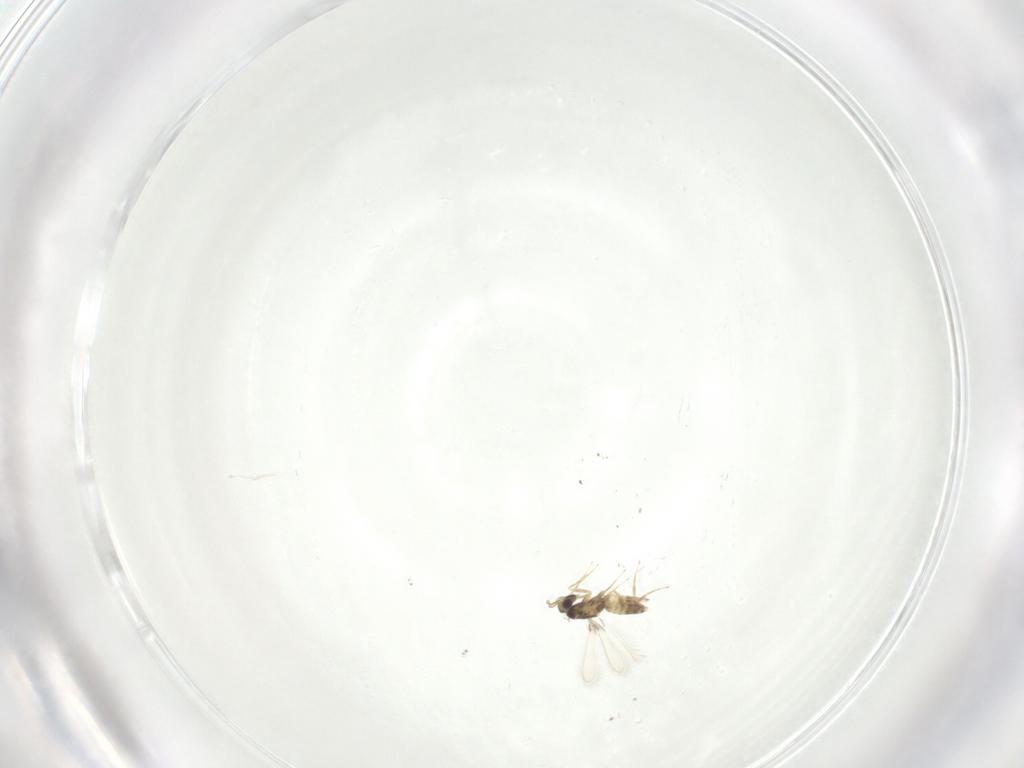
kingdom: Animalia
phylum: Arthropoda
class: Insecta
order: Hymenoptera
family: Mymaridae
